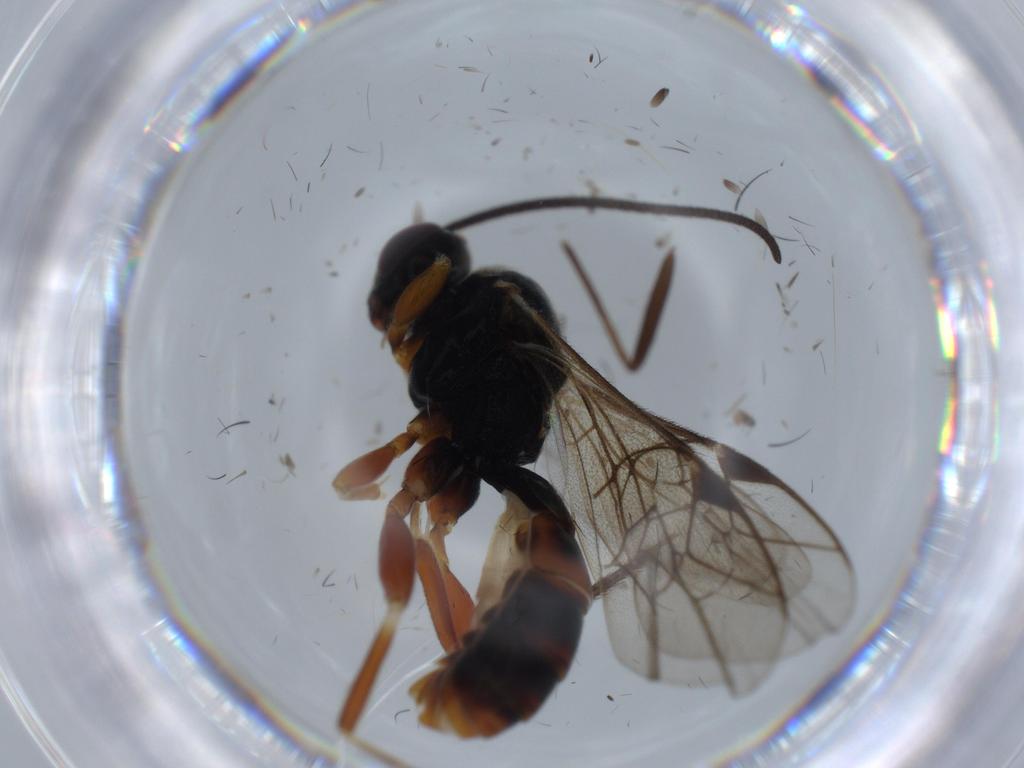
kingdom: Animalia
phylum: Arthropoda
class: Insecta
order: Hymenoptera
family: Ichneumonidae
